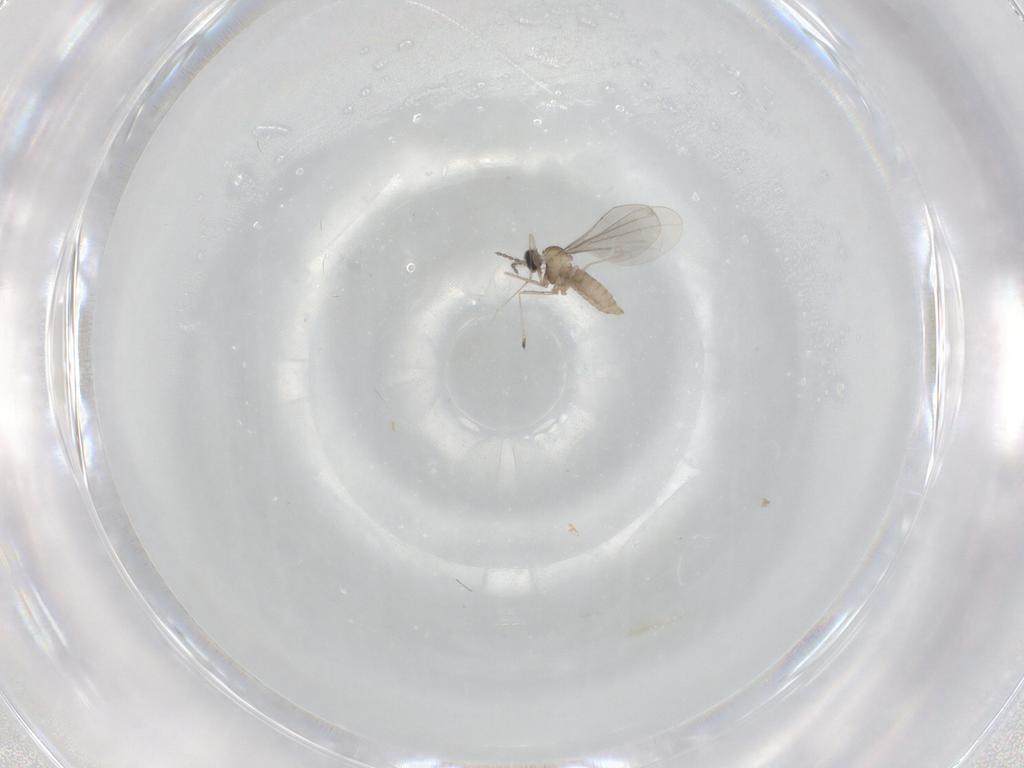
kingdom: Animalia
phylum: Arthropoda
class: Insecta
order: Diptera
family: Cecidomyiidae
